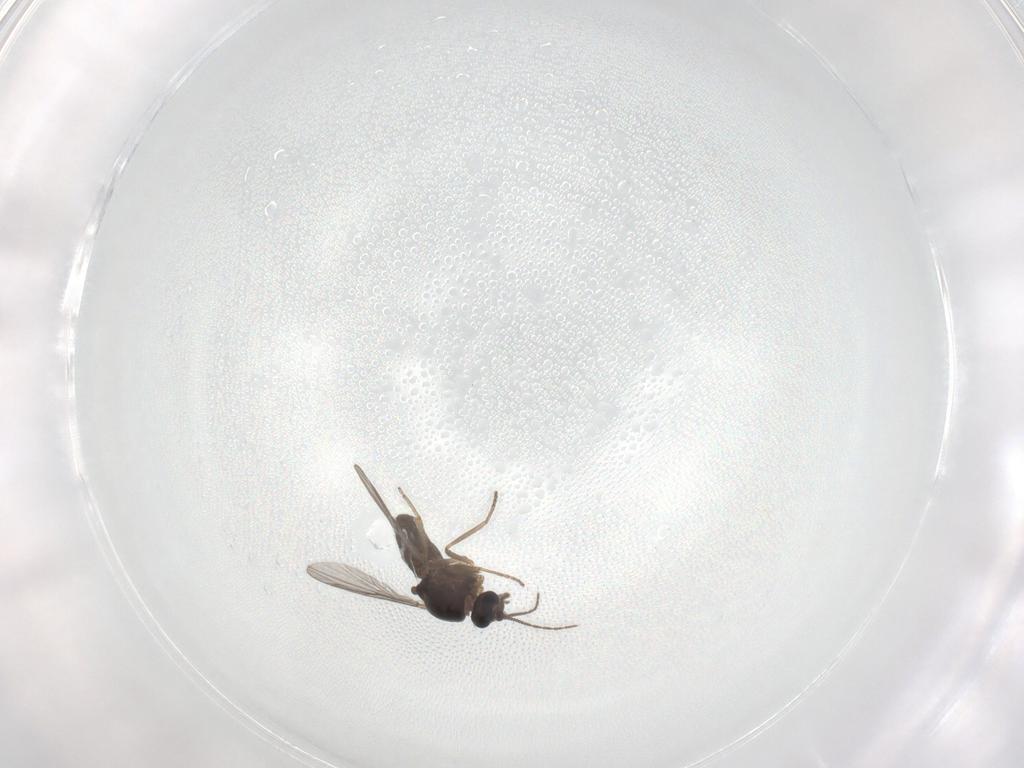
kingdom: Animalia
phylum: Arthropoda
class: Insecta
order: Diptera
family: Ceratopogonidae
